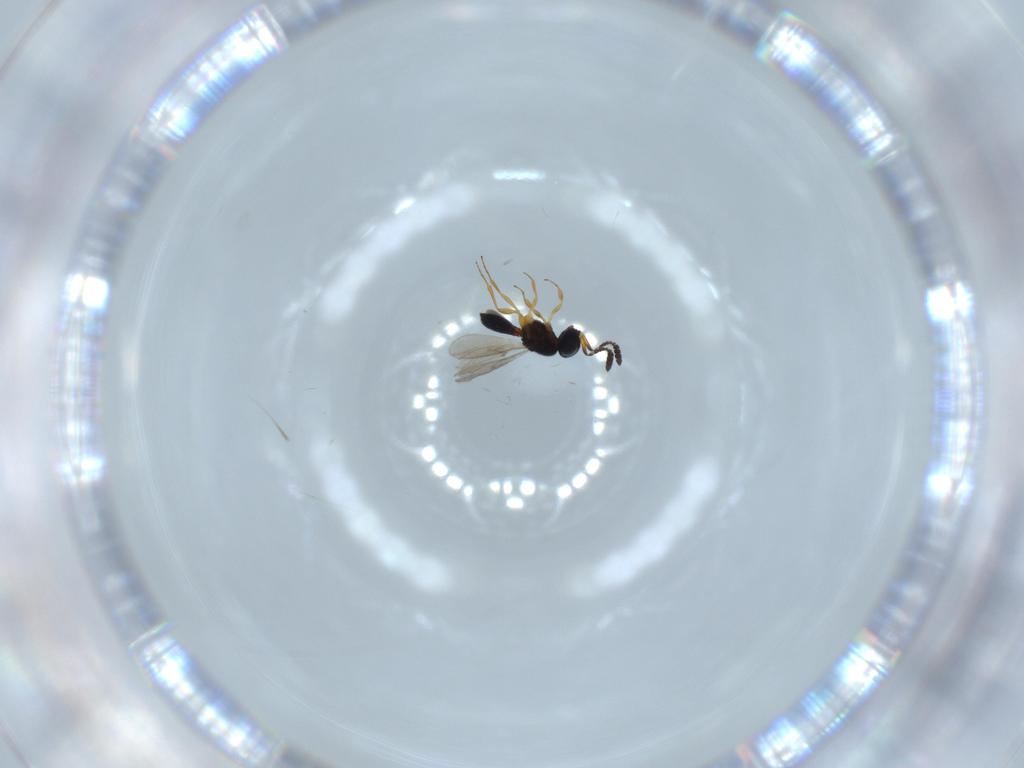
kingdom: Animalia
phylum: Arthropoda
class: Insecta
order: Hymenoptera
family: Scelionidae
